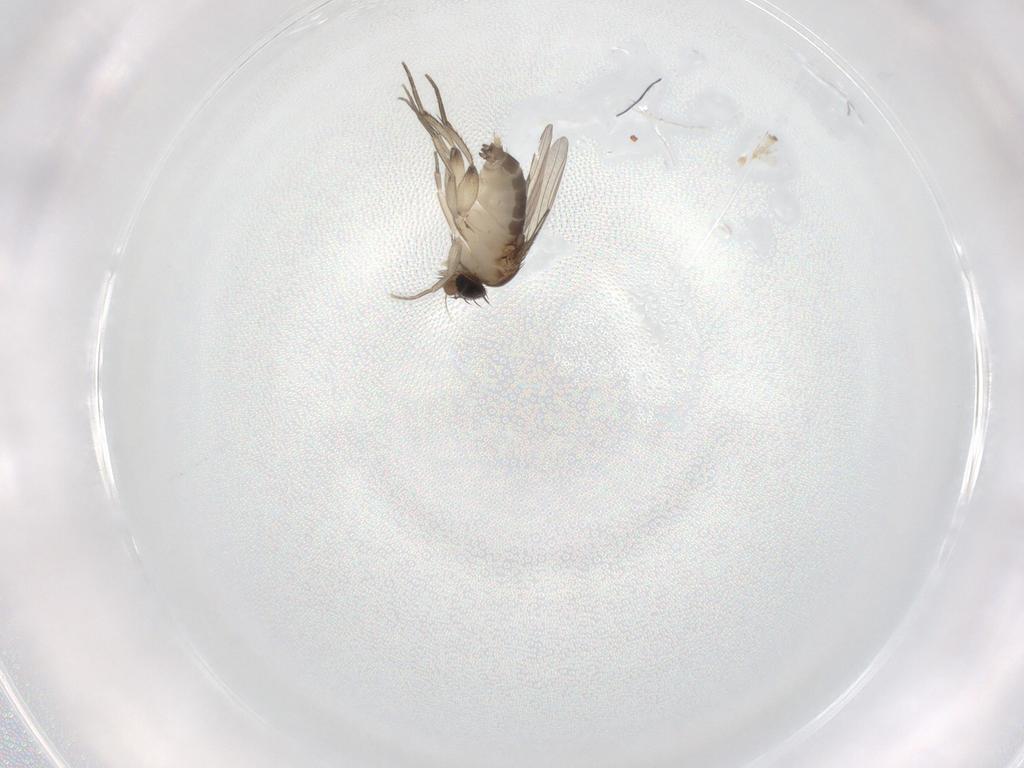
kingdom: Animalia
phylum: Arthropoda
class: Insecta
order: Diptera
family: Phoridae
